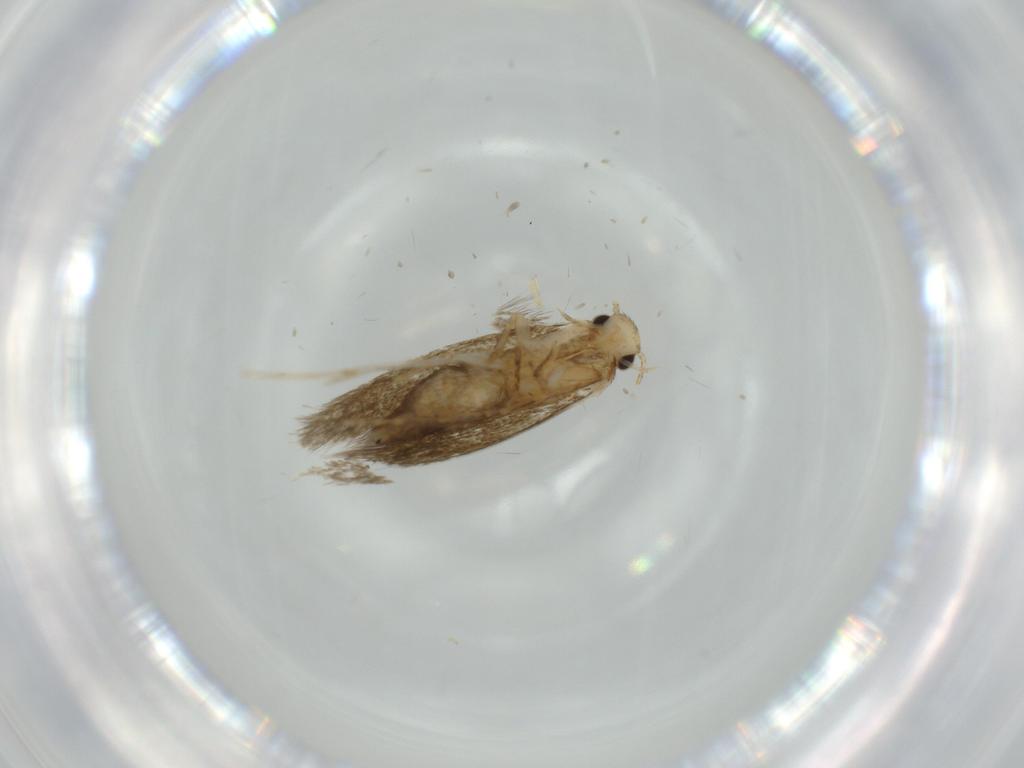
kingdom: Animalia
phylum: Arthropoda
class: Insecta
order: Lepidoptera
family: Tineidae
